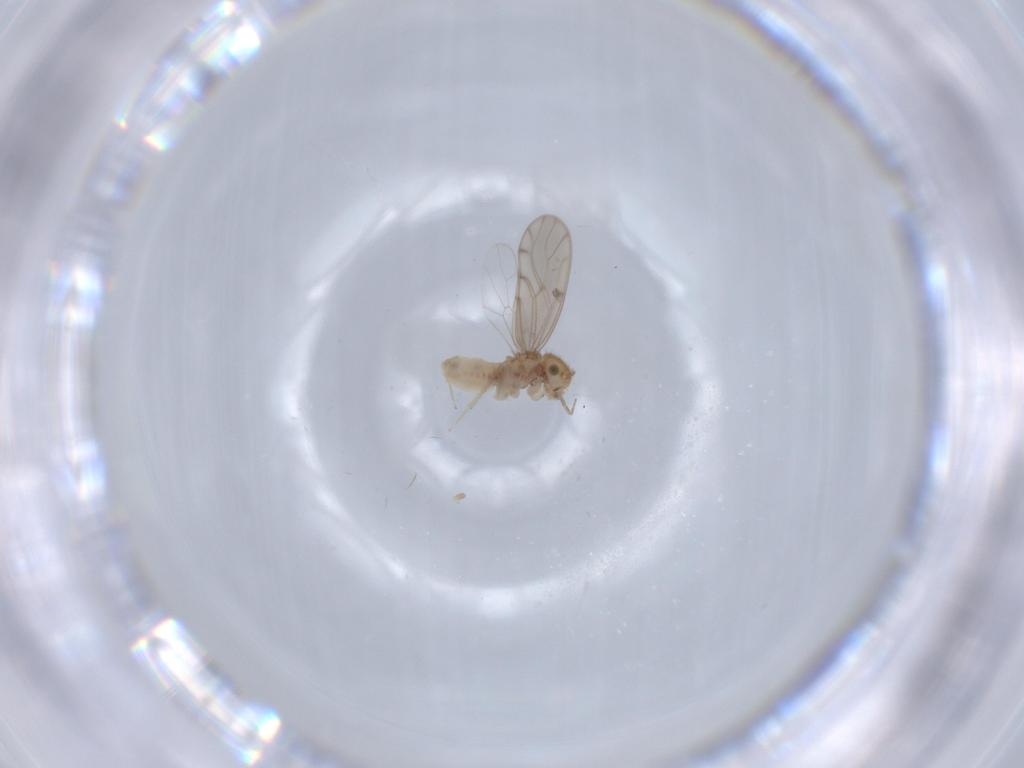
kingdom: Animalia
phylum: Arthropoda
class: Insecta
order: Psocodea
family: Ectopsocidae
